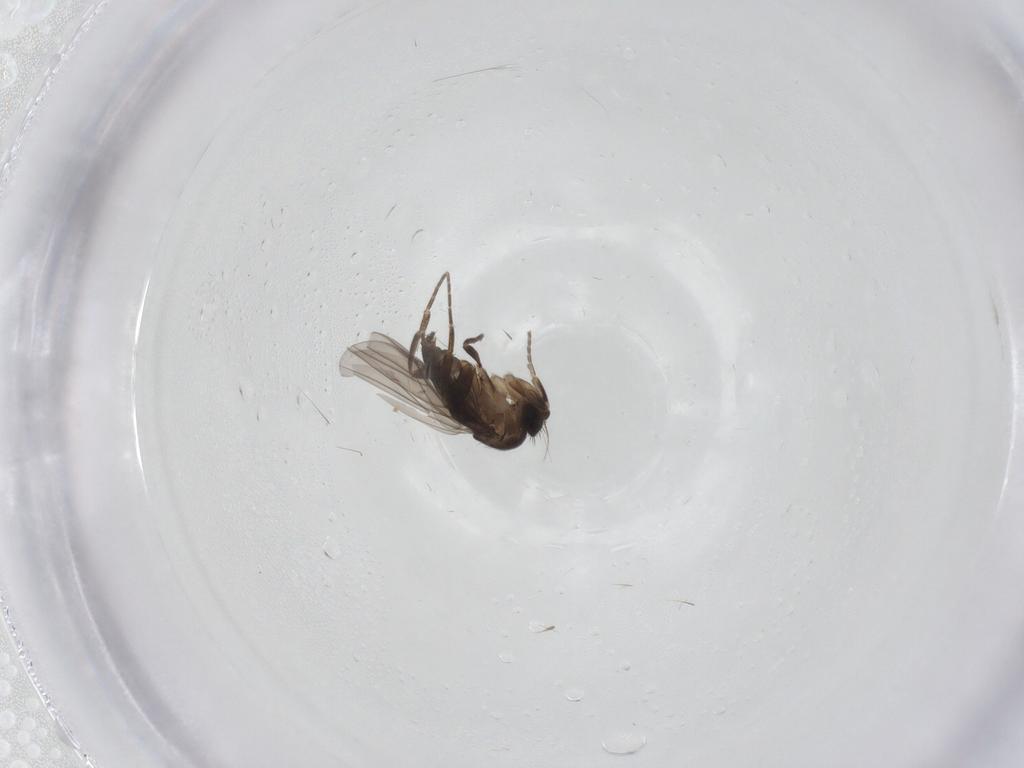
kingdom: Animalia
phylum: Arthropoda
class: Insecta
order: Diptera
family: Phoridae
